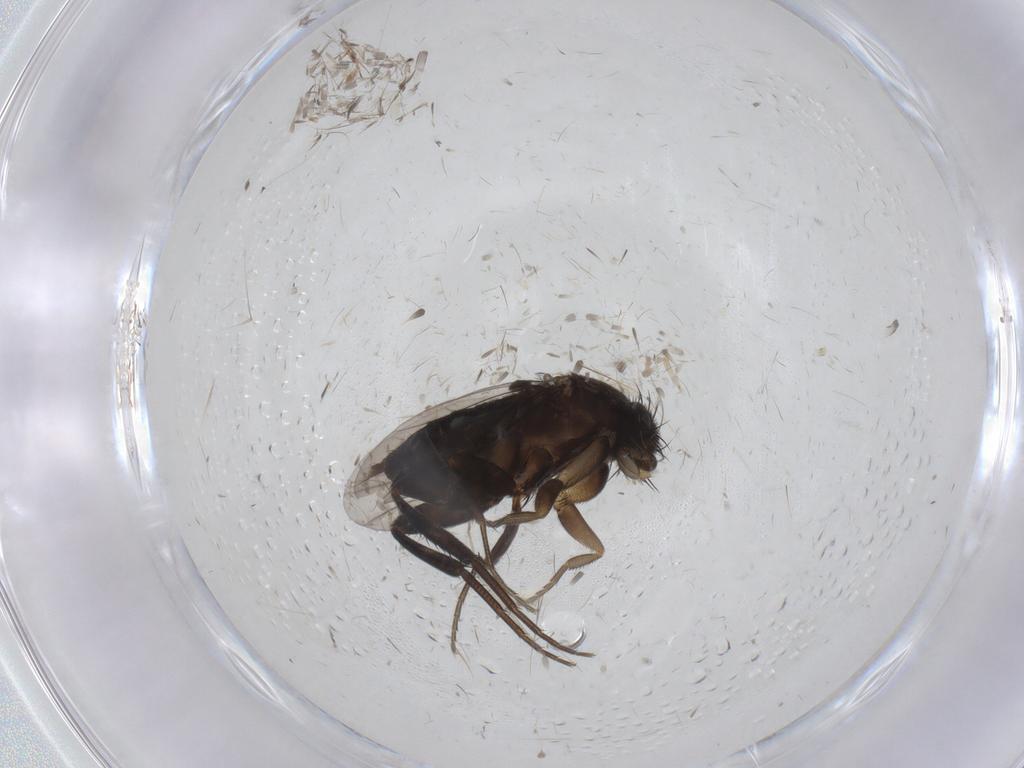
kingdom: Animalia
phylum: Arthropoda
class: Insecta
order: Diptera
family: Phoridae
